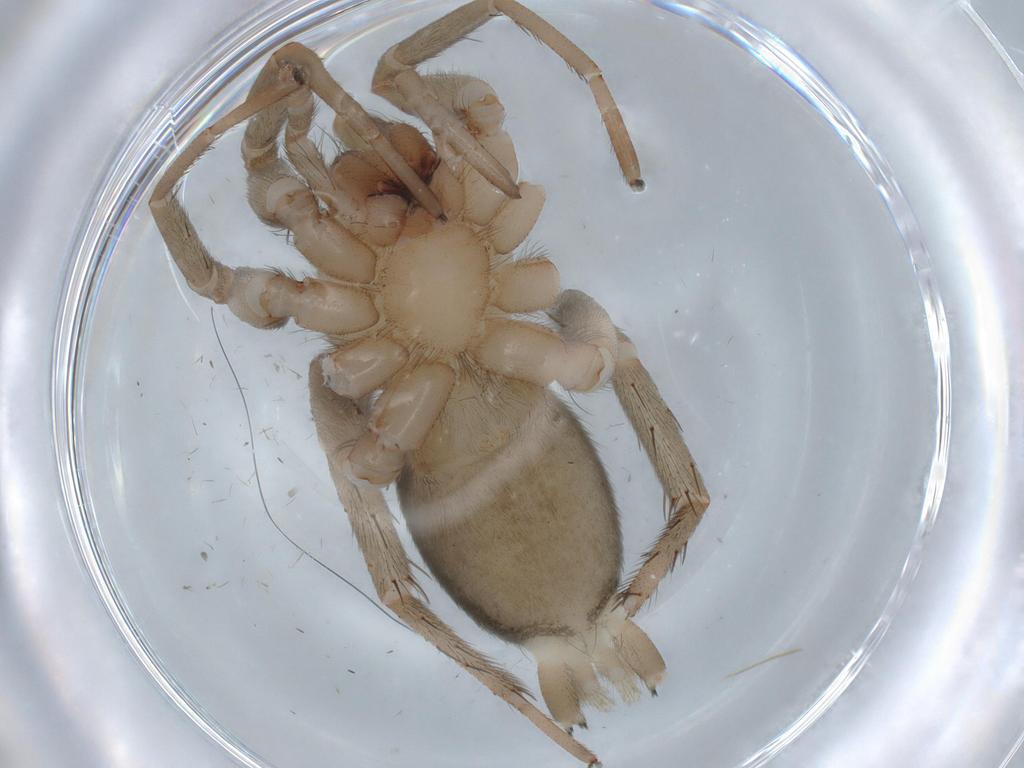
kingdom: Animalia
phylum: Arthropoda
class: Arachnida
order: Araneae
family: Gnaphosidae
